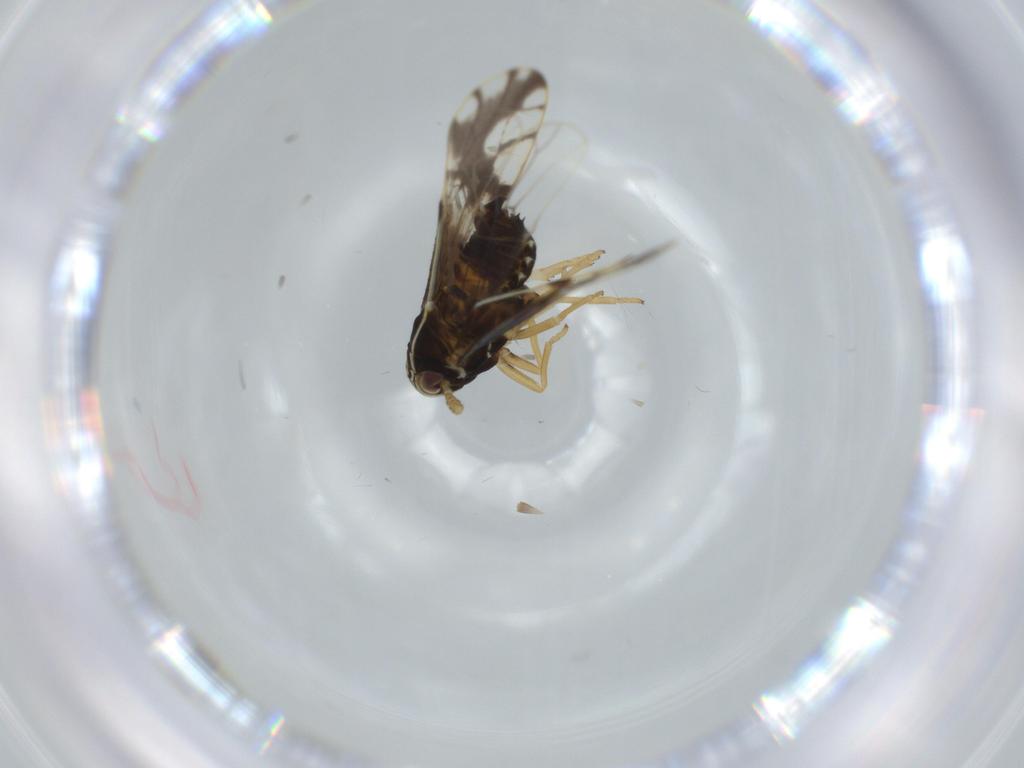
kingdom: Animalia
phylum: Arthropoda
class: Insecta
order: Hemiptera
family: Delphacidae
